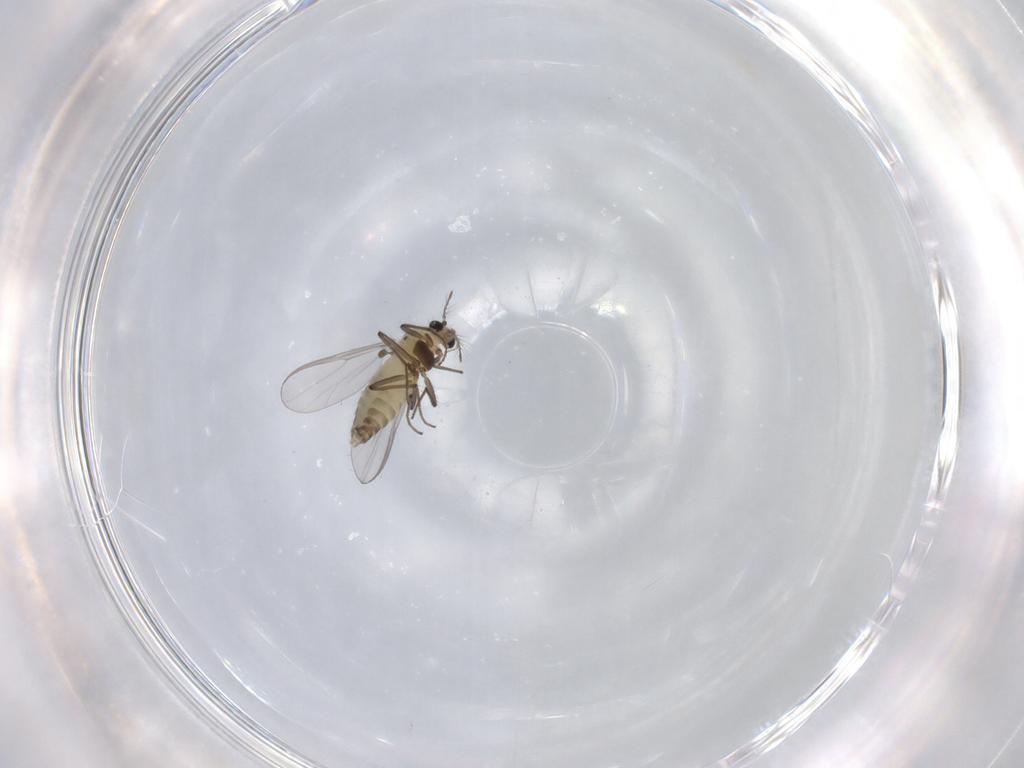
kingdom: Animalia
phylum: Arthropoda
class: Insecta
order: Diptera
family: Chironomidae
